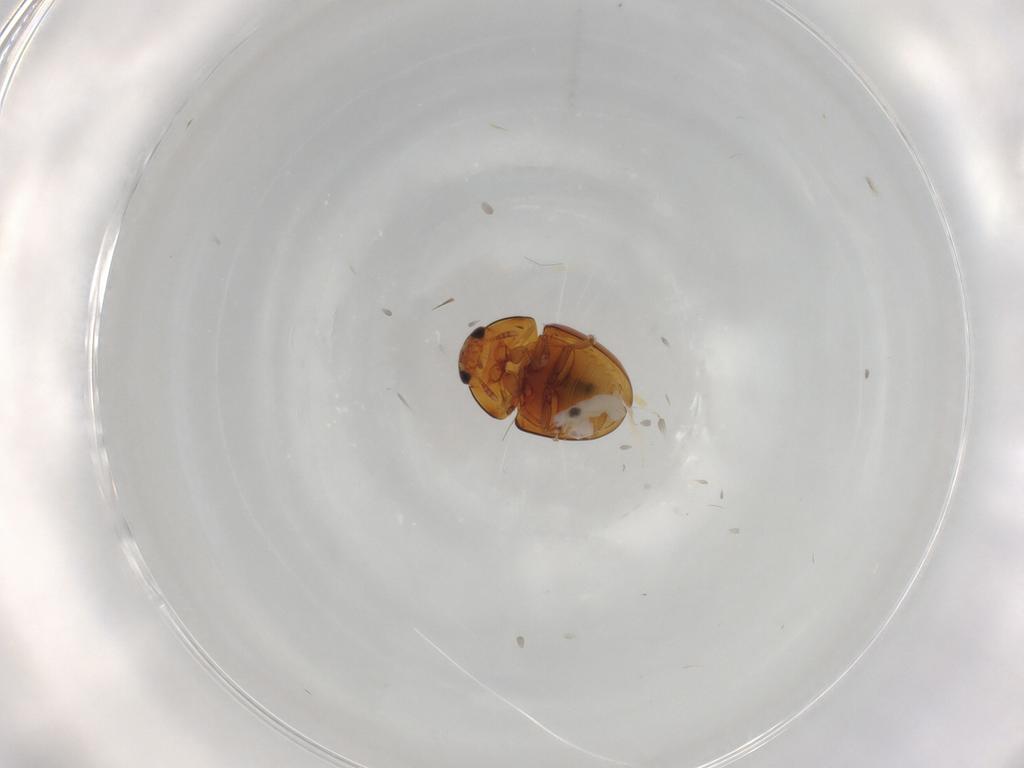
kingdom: Animalia
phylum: Arthropoda
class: Insecta
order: Coleoptera
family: Phalacridae
